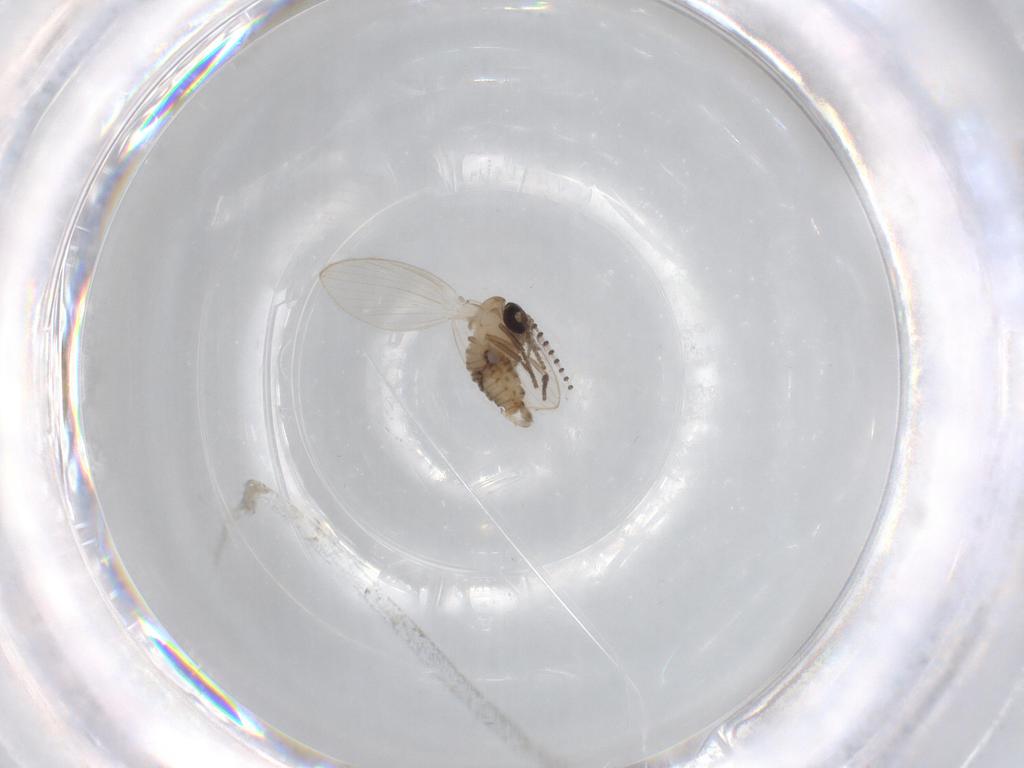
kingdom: Animalia
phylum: Arthropoda
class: Insecta
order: Diptera
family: Psychodidae
